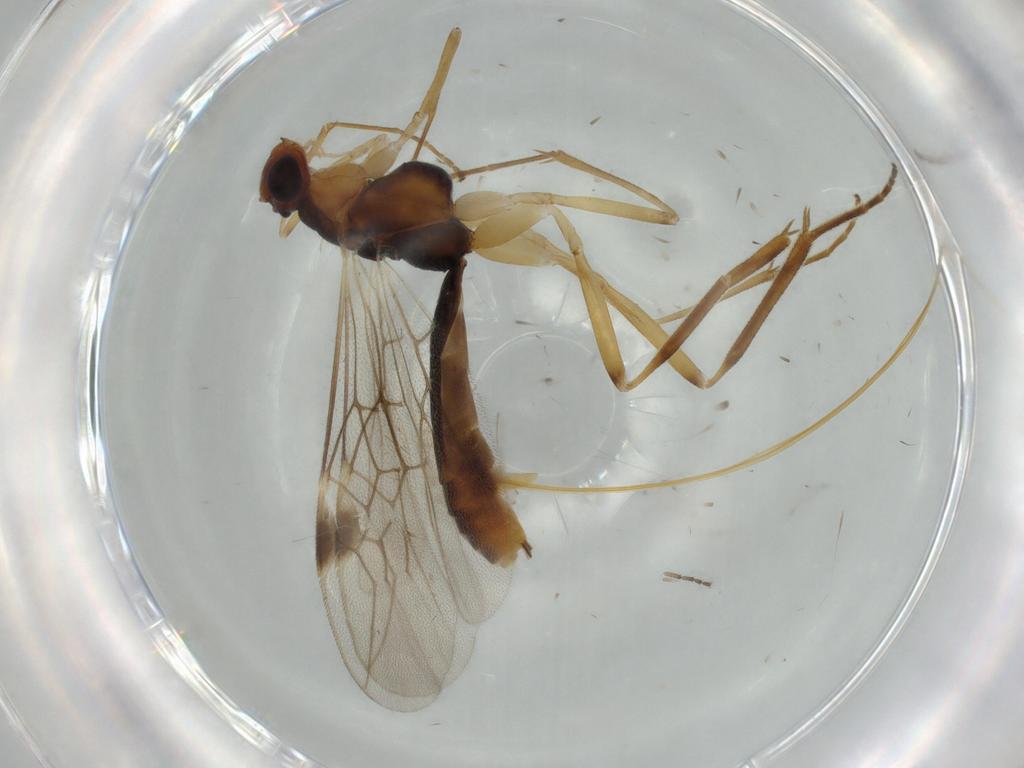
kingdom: Animalia
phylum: Arthropoda
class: Insecta
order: Hymenoptera
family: Braconidae
